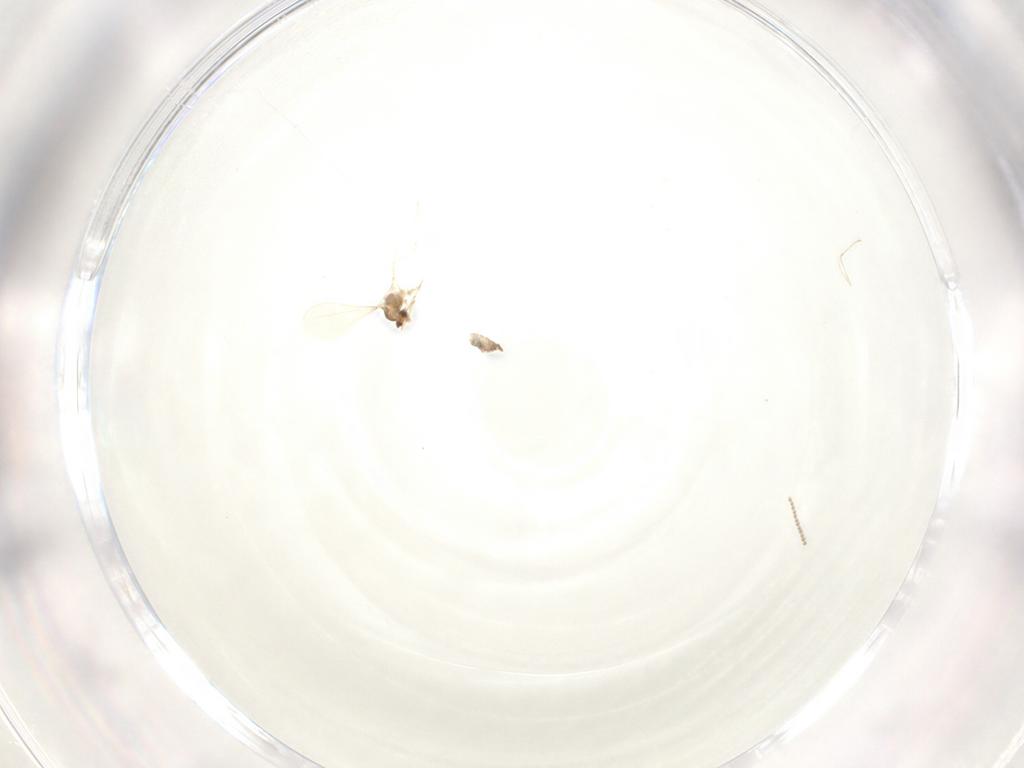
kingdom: Animalia
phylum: Arthropoda
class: Insecta
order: Diptera
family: Cecidomyiidae
